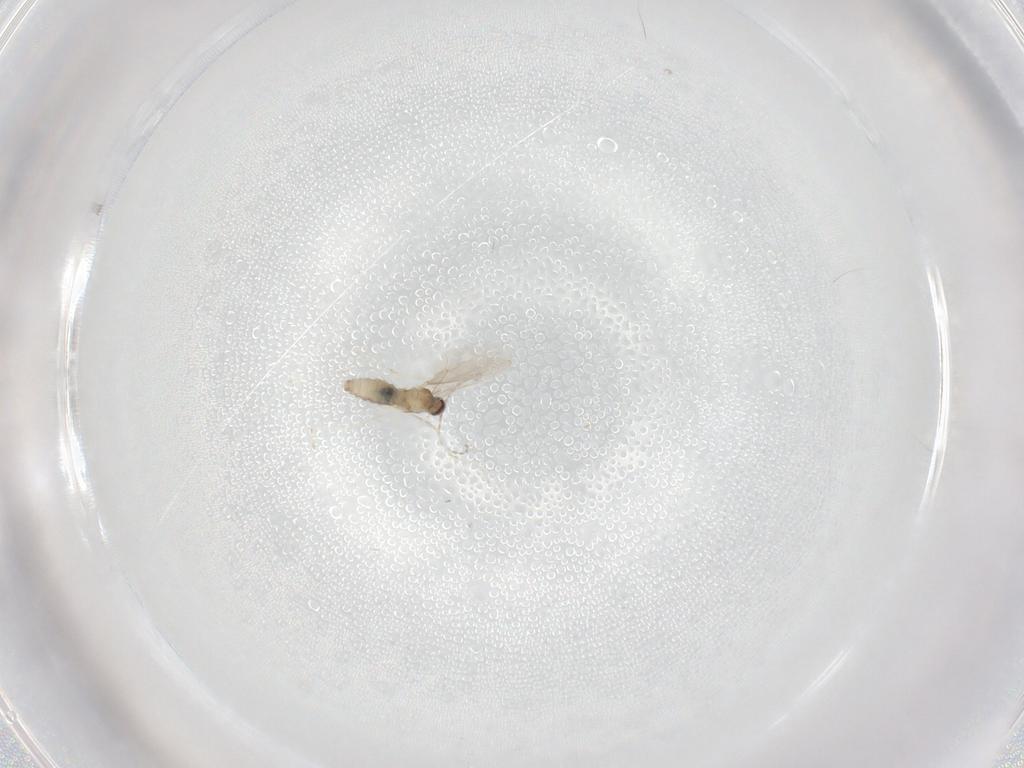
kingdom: Animalia
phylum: Arthropoda
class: Insecta
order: Diptera
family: Cecidomyiidae
